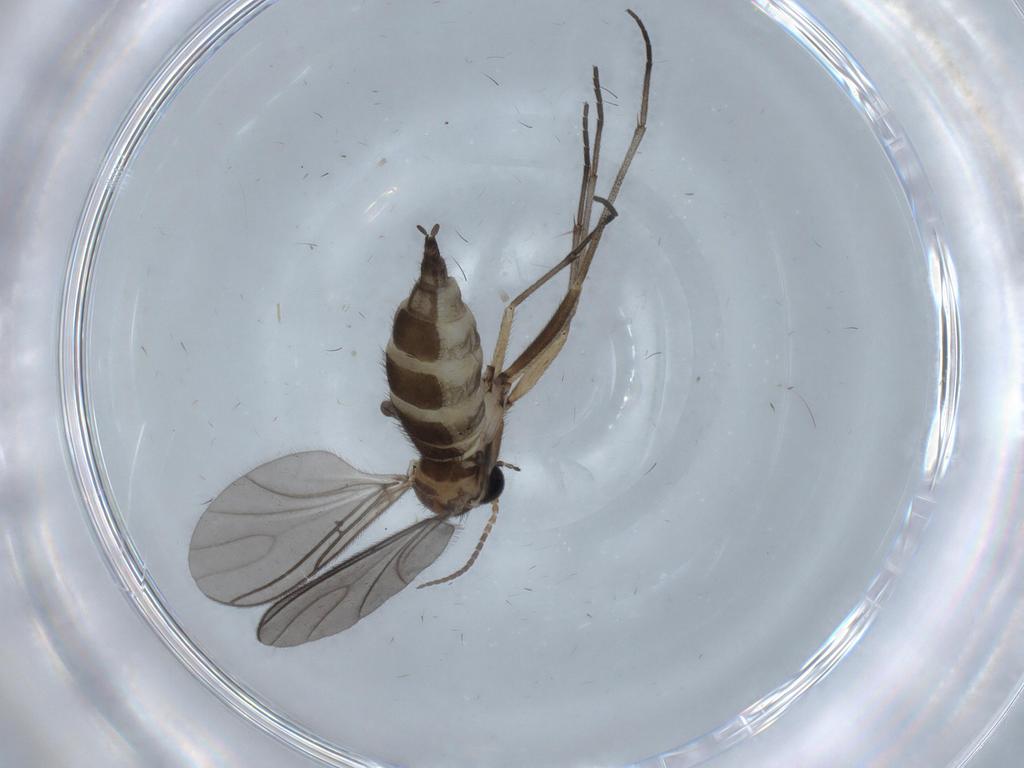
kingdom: Animalia
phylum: Arthropoda
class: Insecta
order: Diptera
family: Sciaridae
